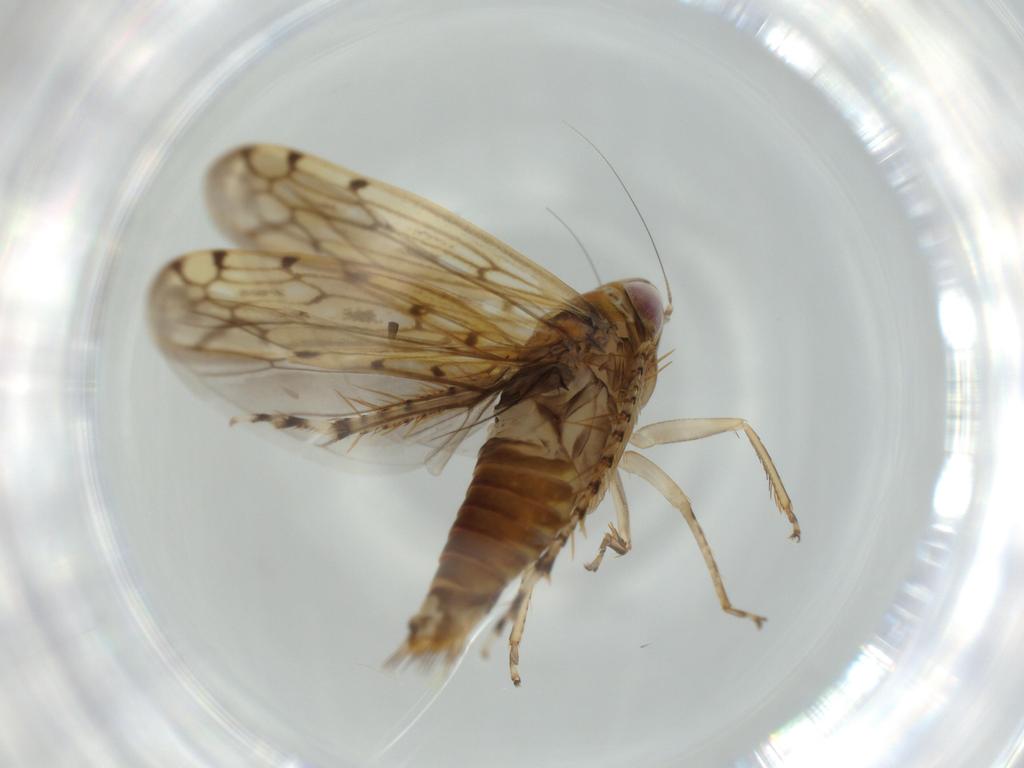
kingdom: Animalia
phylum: Arthropoda
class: Insecta
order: Hemiptera
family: Cicadellidae
